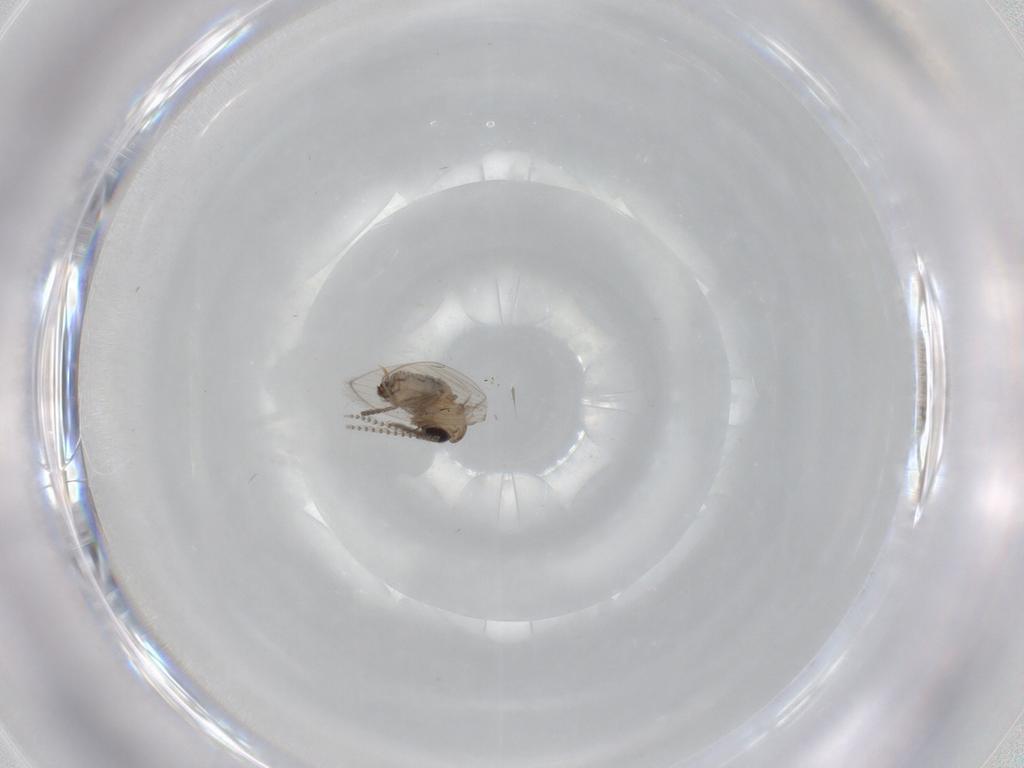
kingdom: Animalia
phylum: Arthropoda
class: Insecta
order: Diptera
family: Psychodidae
